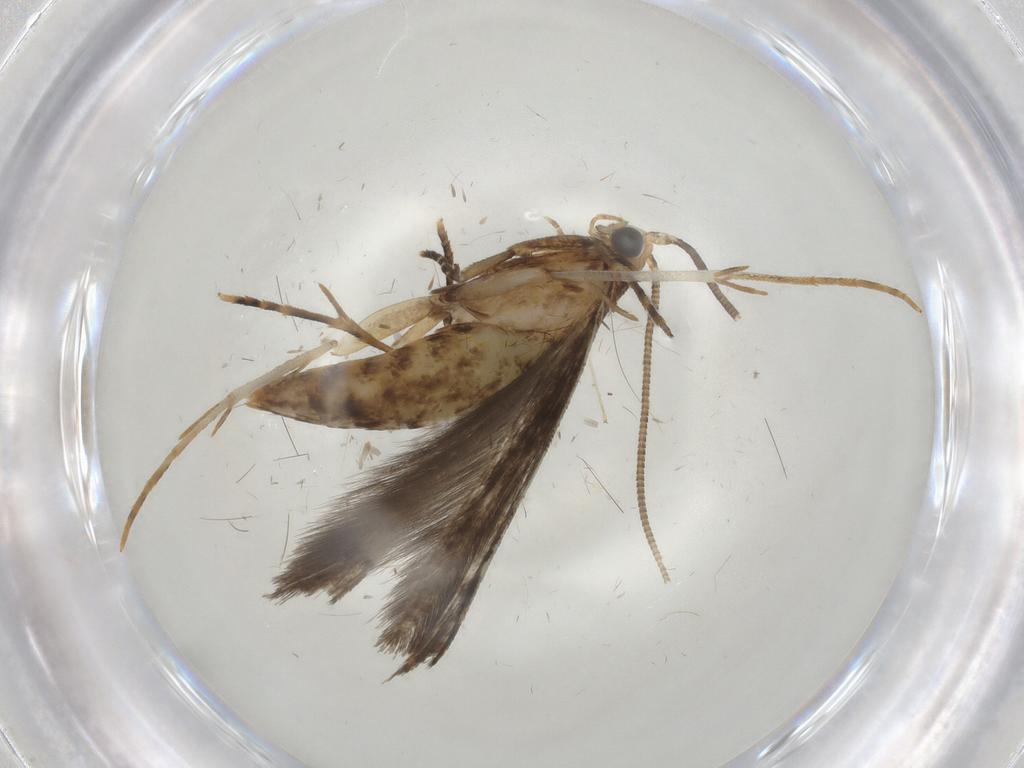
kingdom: Animalia
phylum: Arthropoda
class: Insecta
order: Lepidoptera
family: Tineidae
